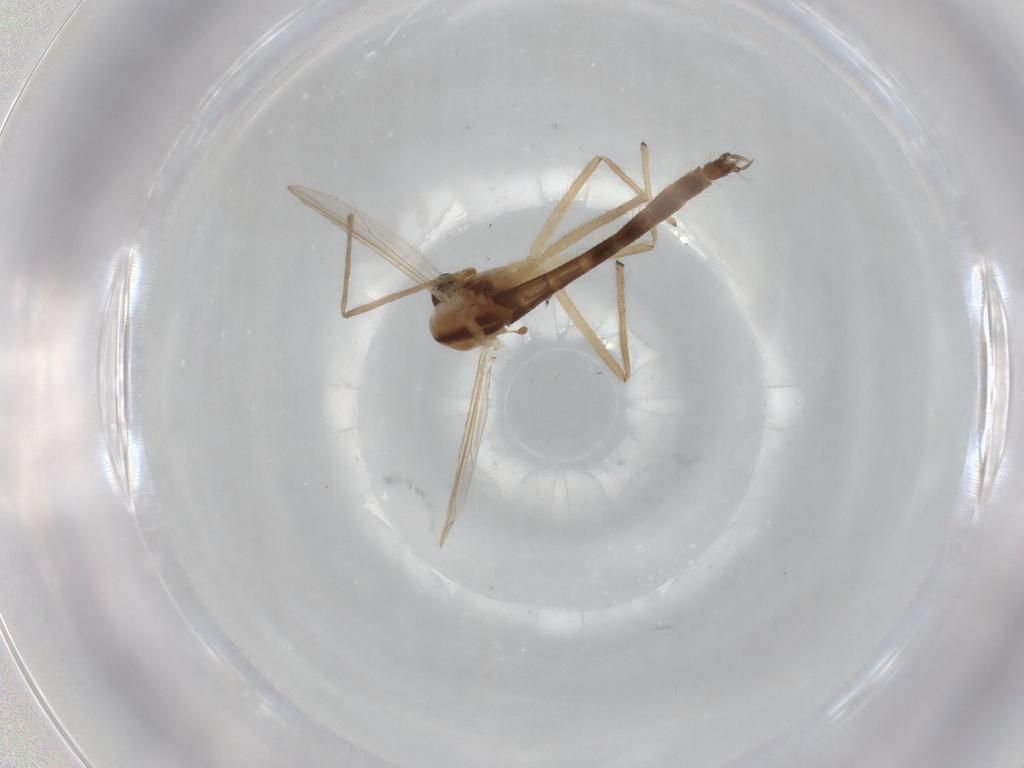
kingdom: Animalia
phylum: Arthropoda
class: Insecta
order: Diptera
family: Chironomidae
